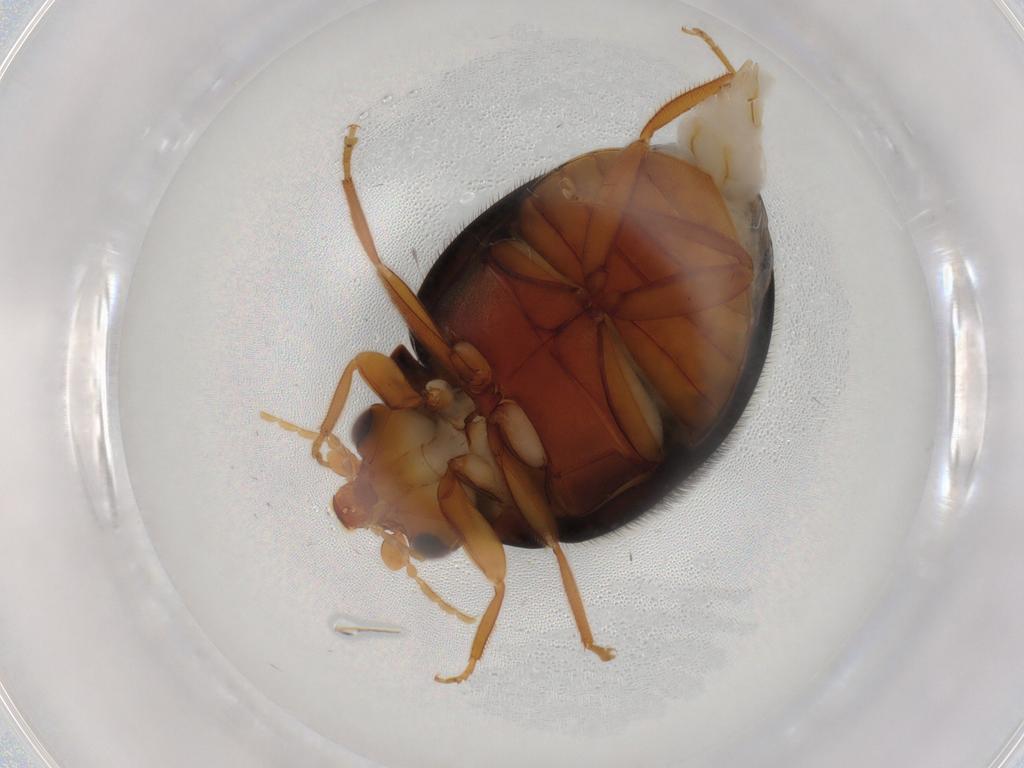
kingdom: Animalia
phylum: Arthropoda
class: Insecta
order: Coleoptera
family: Scirtidae
